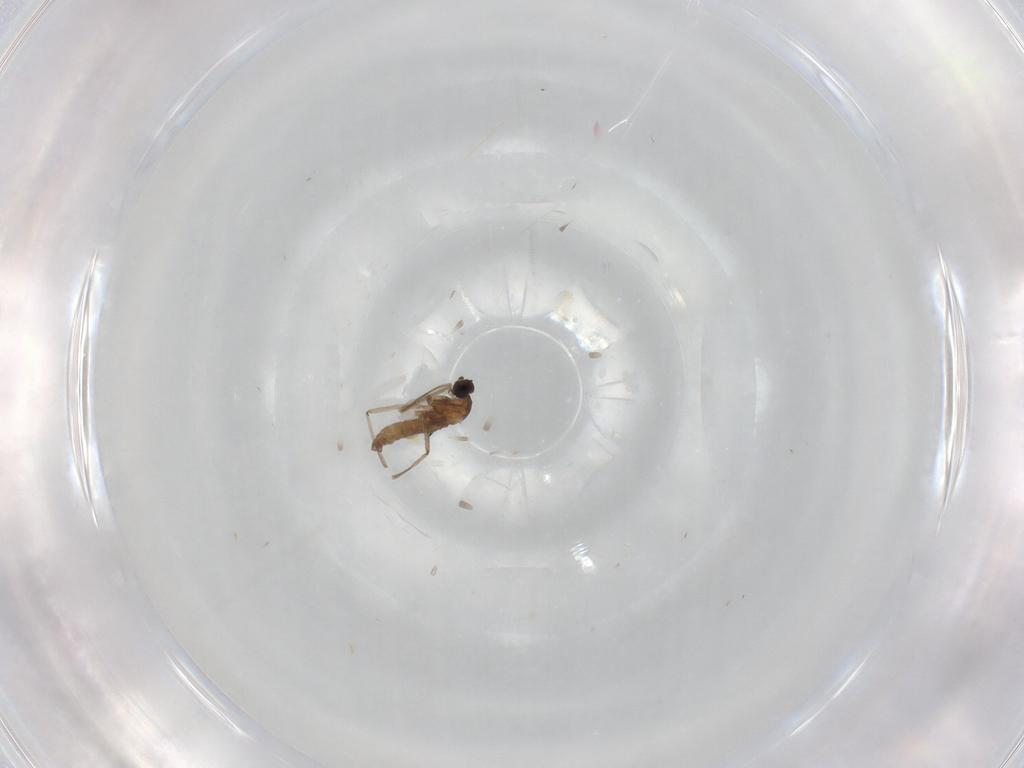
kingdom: Animalia
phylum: Arthropoda
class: Insecta
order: Diptera
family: Cecidomyiidae
